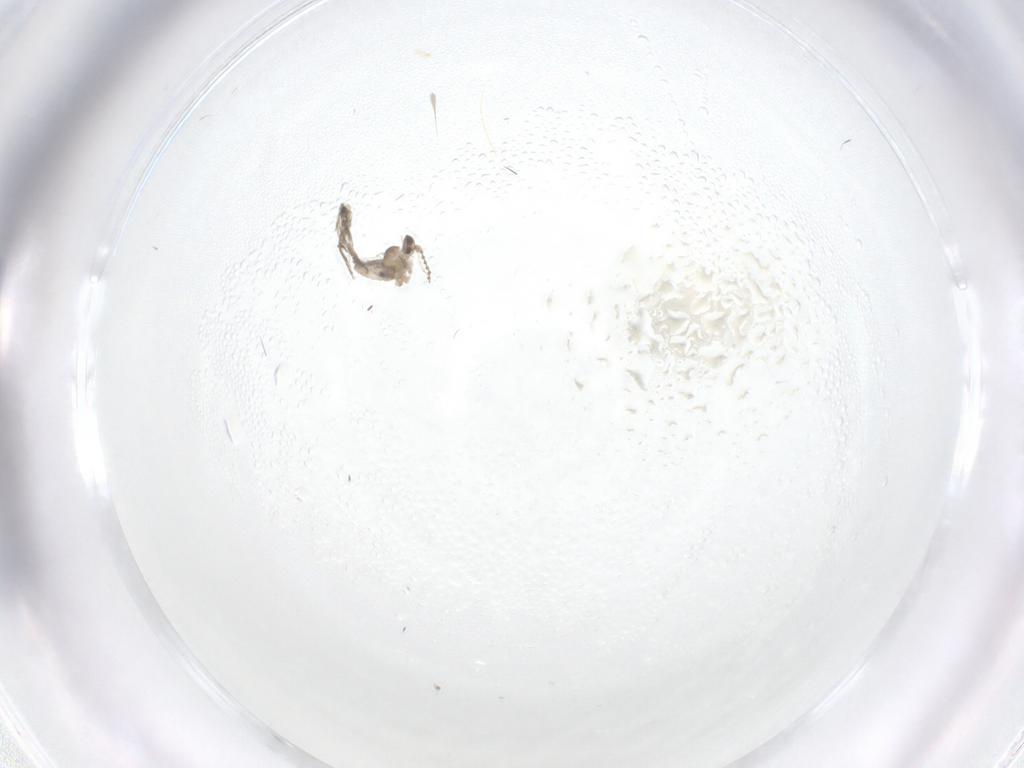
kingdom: Animalia
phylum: Arthropoda
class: Insecta
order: Diptera
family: Cecidomyiidae
